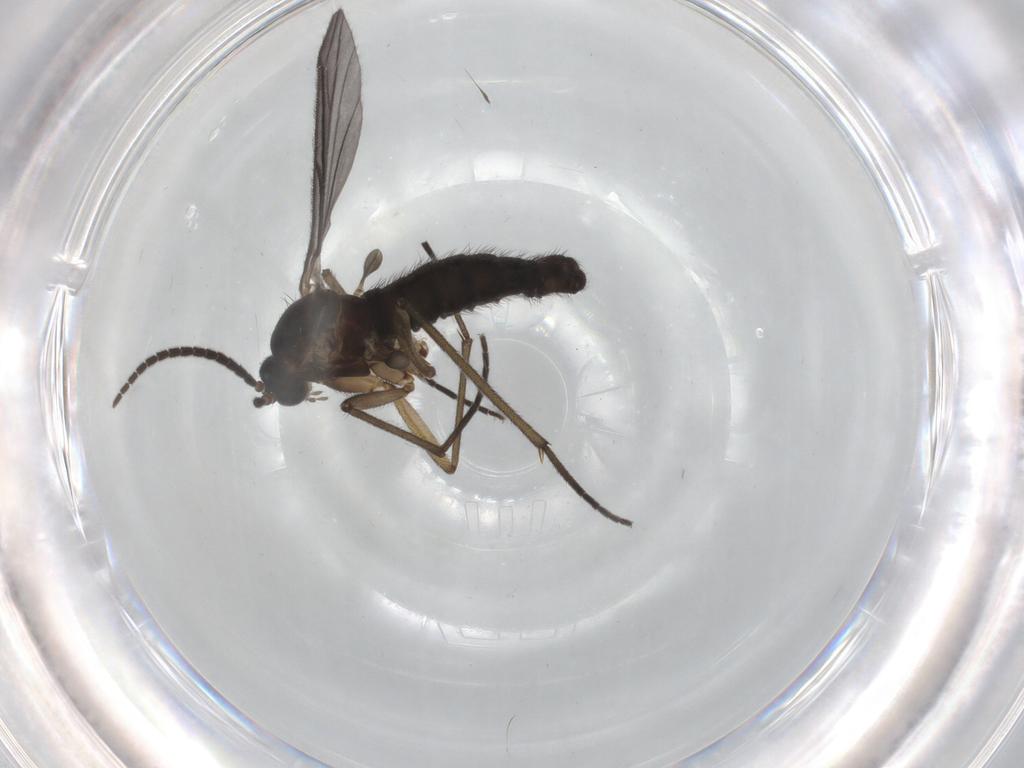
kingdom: Animalia
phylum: Arthropoda
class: Insecta
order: Diptera
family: Sciaridae
